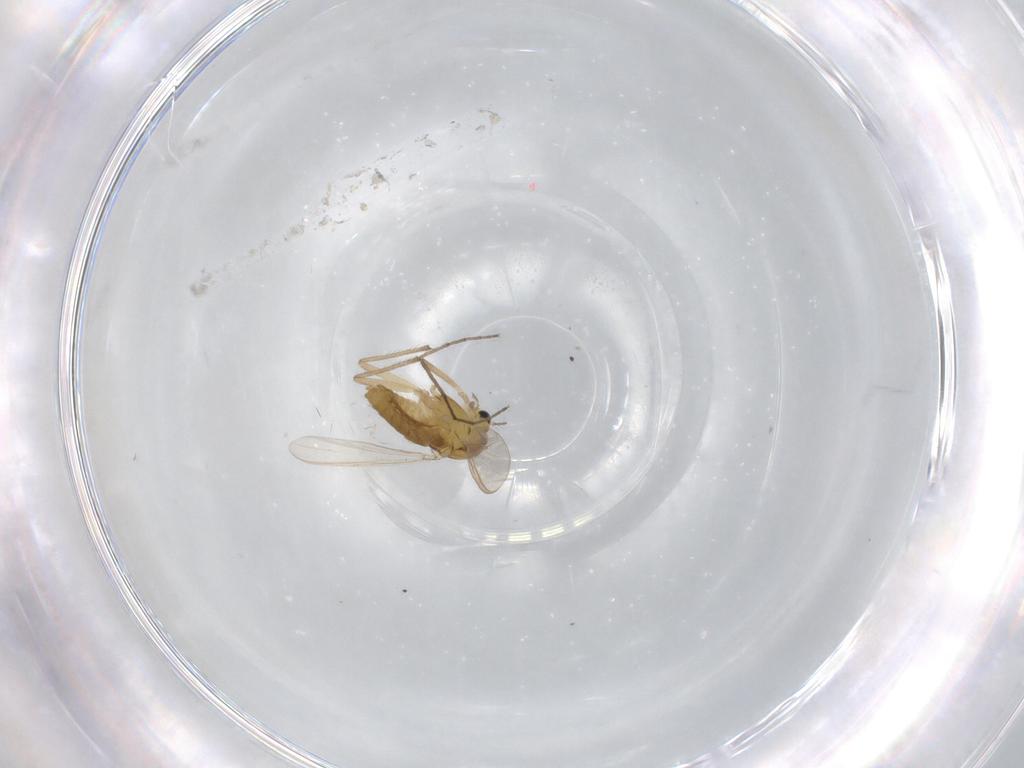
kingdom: Animalia
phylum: Arthropoda
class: Insecta
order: Diptera
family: Chironomidae
